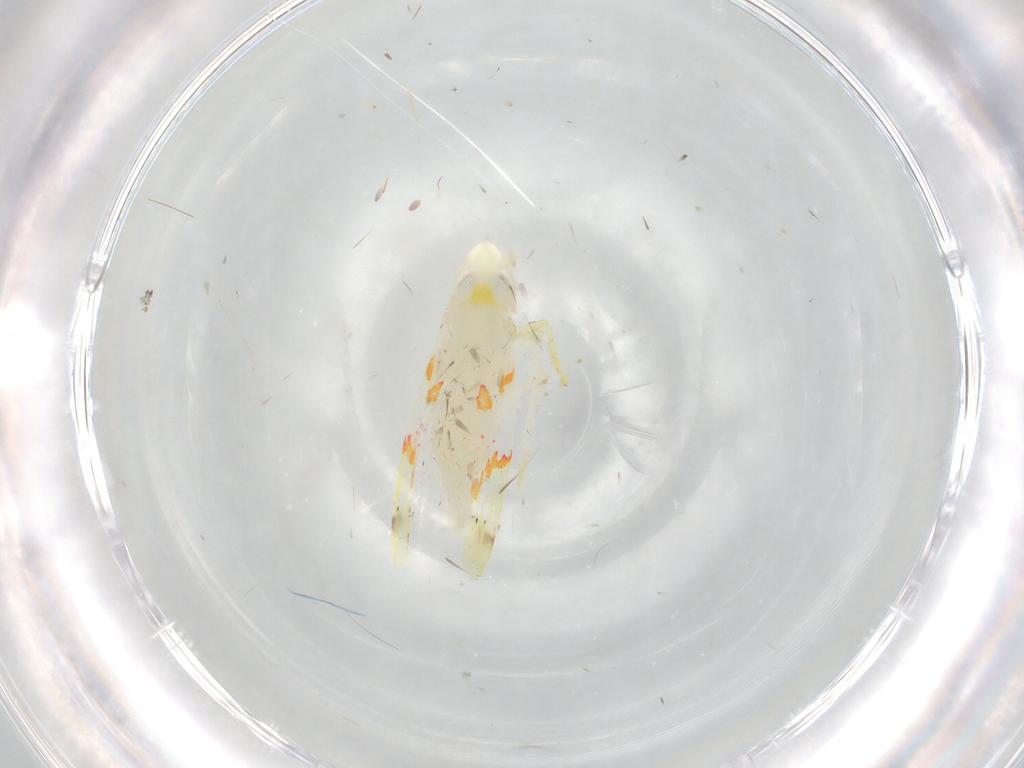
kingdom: Animalia
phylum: Arthropoda
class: Insecta
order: Hemiptera
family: Cicadellidae
